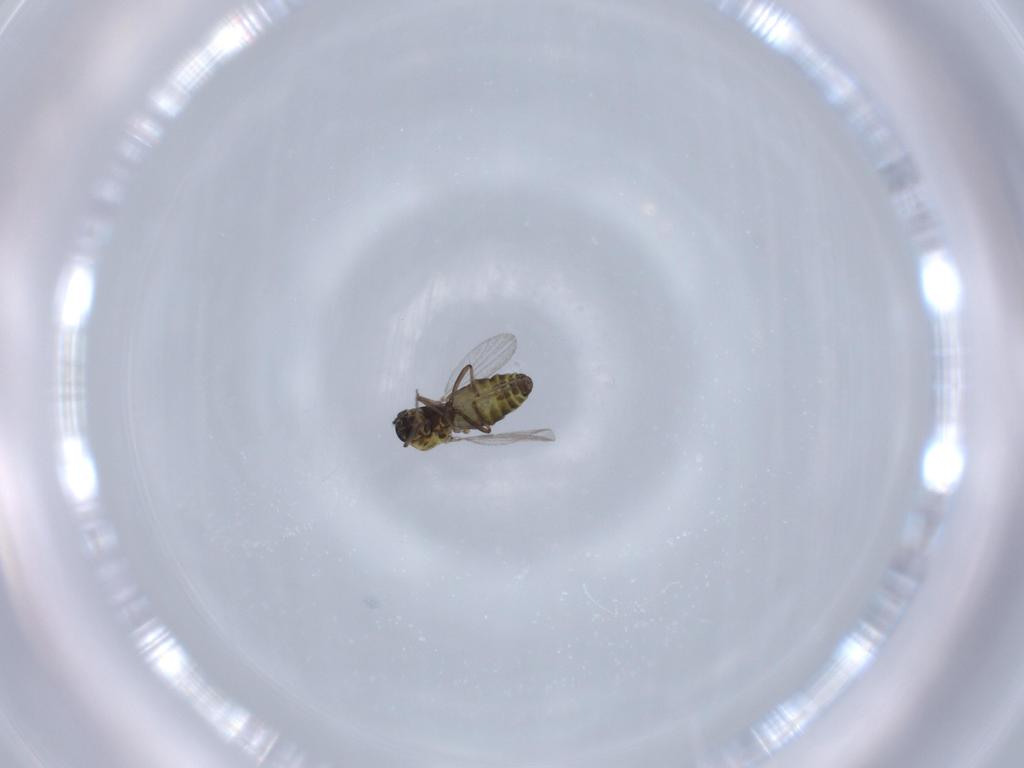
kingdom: Animalia
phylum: Arthropoda
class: Insecta
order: Diptera
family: Ceratopogonidae
